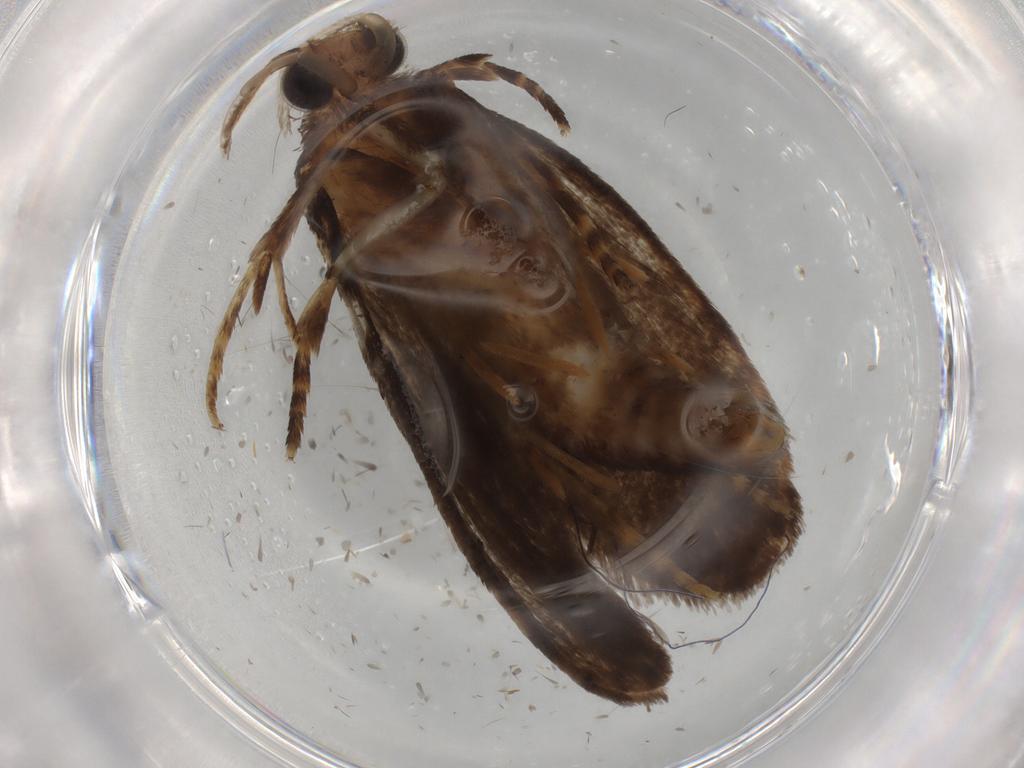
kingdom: Animalia
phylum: Arthropoda
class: Insecta
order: Lepidoptera
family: Tineidae
